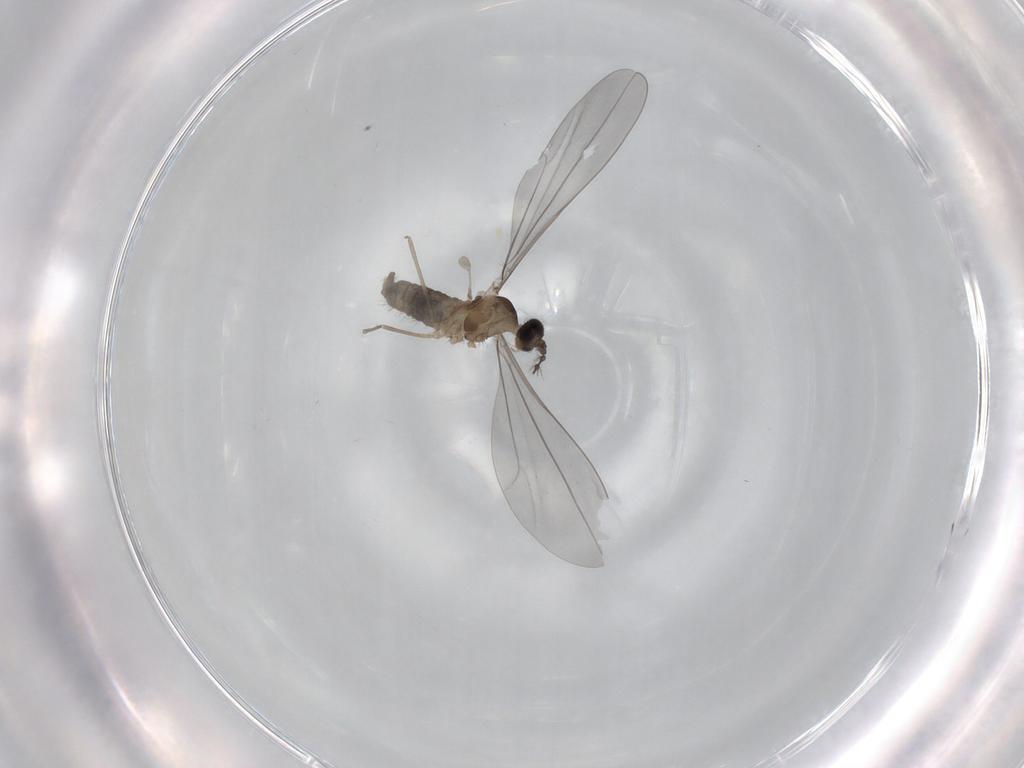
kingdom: Animalia
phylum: Arthropoda
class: Insecta
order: Diptera
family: Cecidomyiidae
